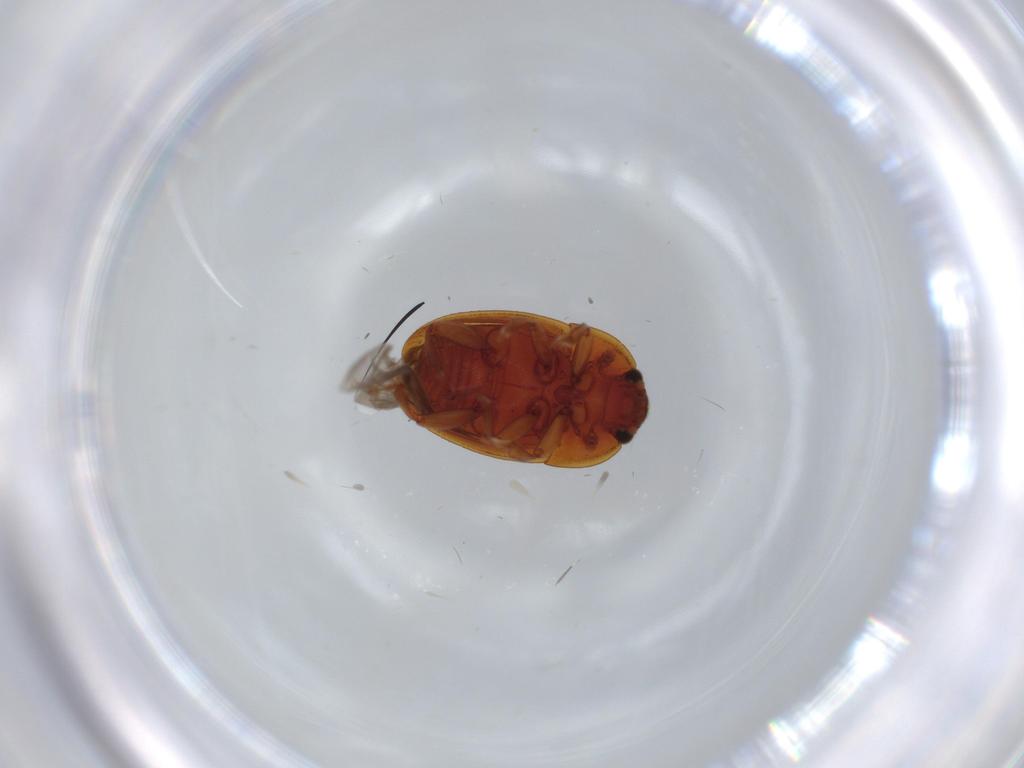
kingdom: Animalia
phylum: Arthropoda
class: Insecta
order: Coleoptera
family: Chrysomelidae
